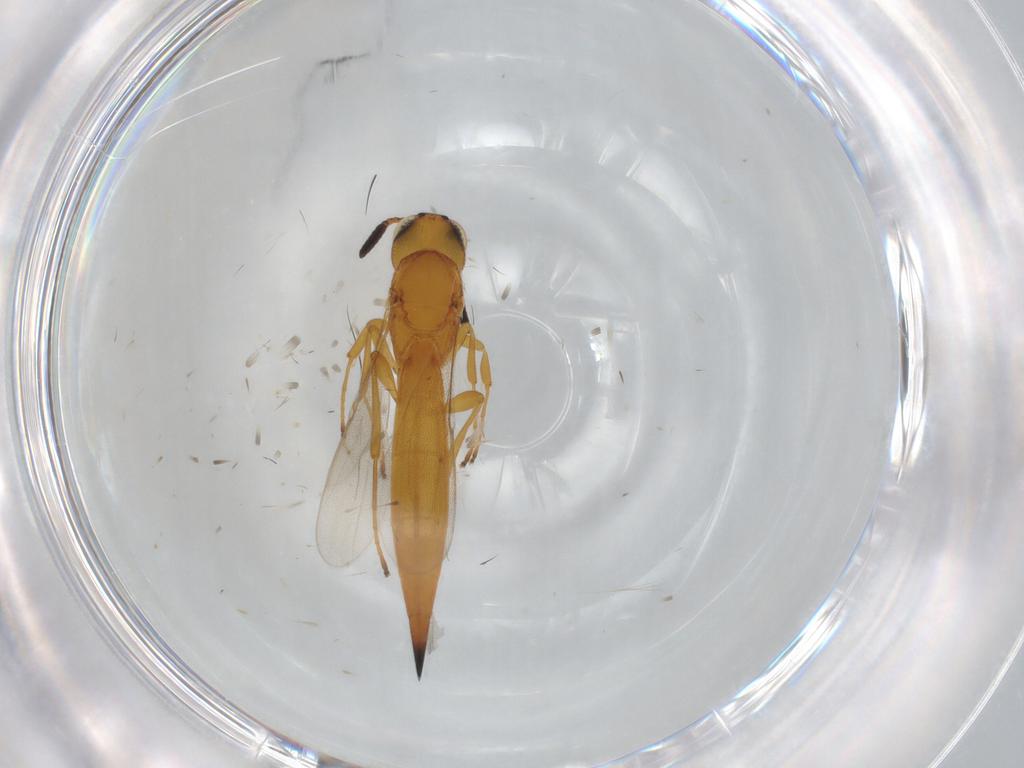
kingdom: Animalia
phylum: Arthropoda
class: Insecta
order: Hymenoptera
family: Scelionidae
